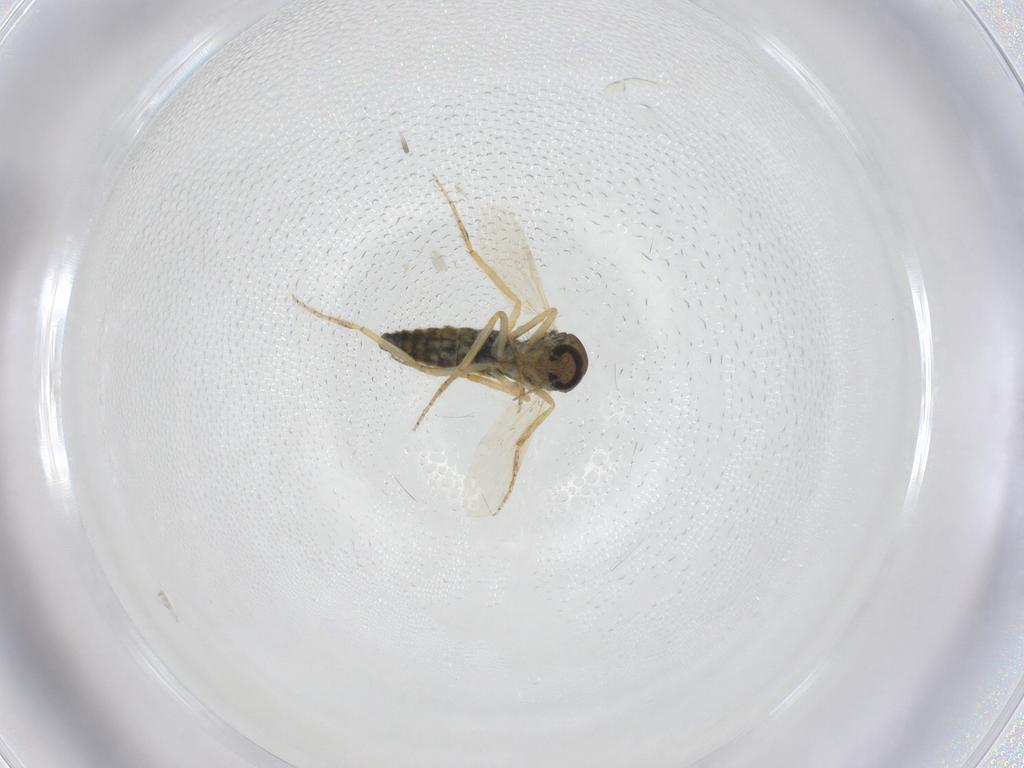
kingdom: Animalia
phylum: Arthropoda
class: Insecta
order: Diptera
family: Ceratopogonidae
